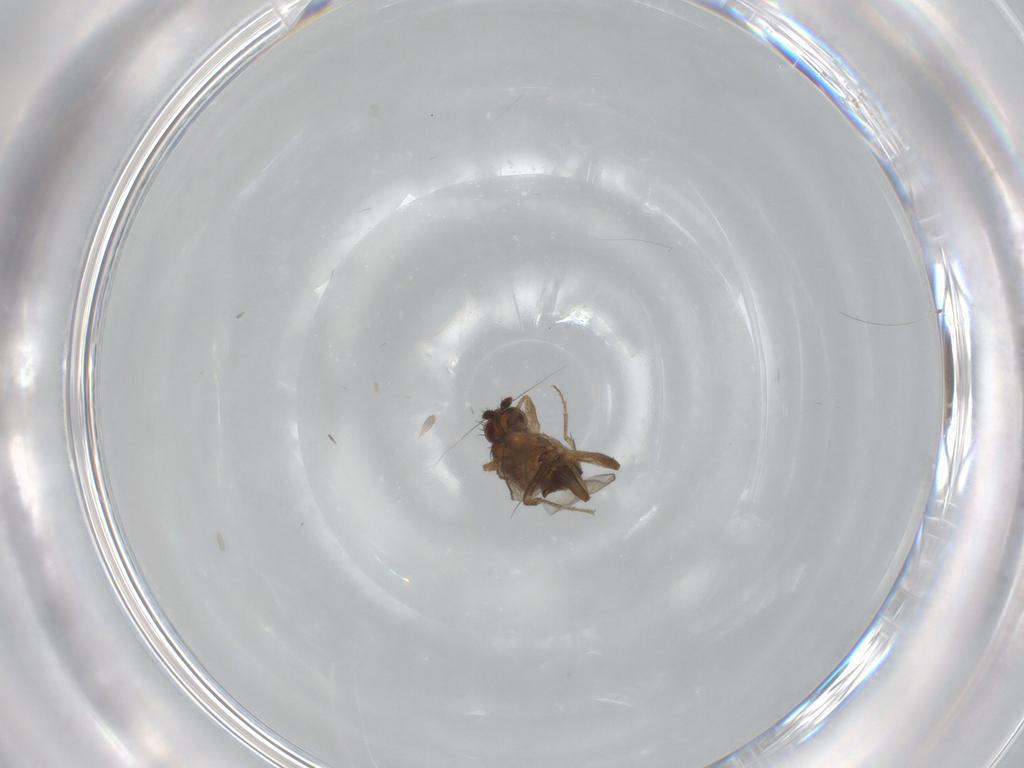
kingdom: Animalia
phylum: Arthropoda
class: Insecta
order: Diptera
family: Sphaeroceridae
